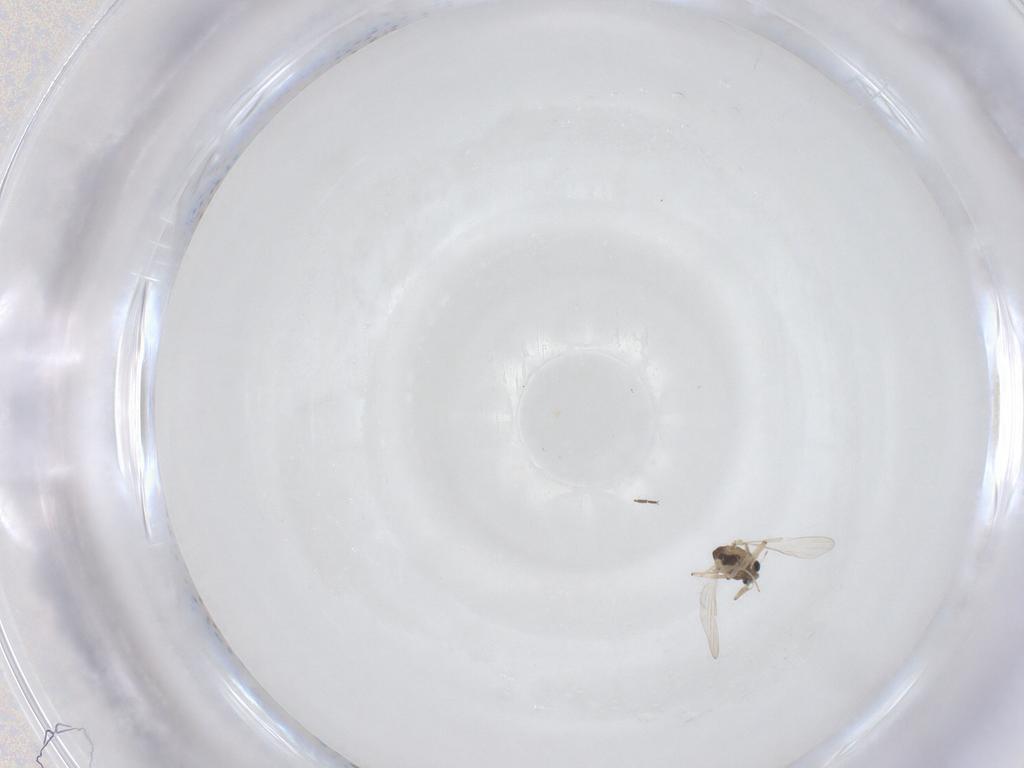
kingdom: Animalia
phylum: Arthropoda
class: Insecta
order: Diptera
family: Chironomidae
